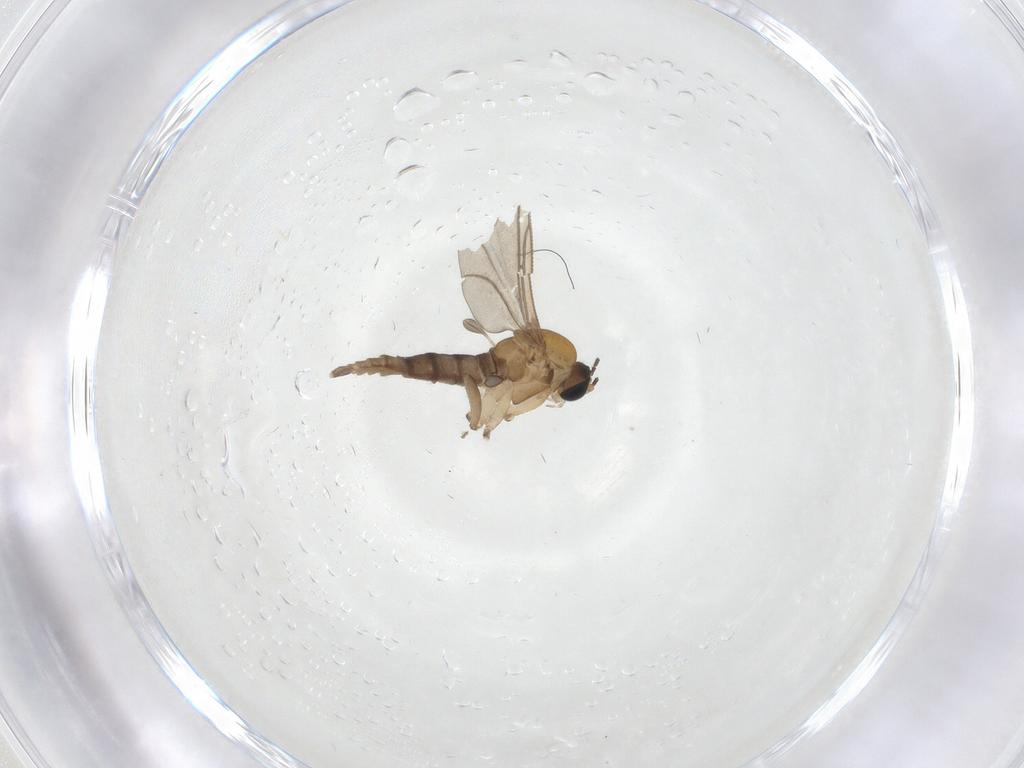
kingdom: Animalia
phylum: Arthropoda
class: Insecta
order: Diptera
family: Sciaridae
